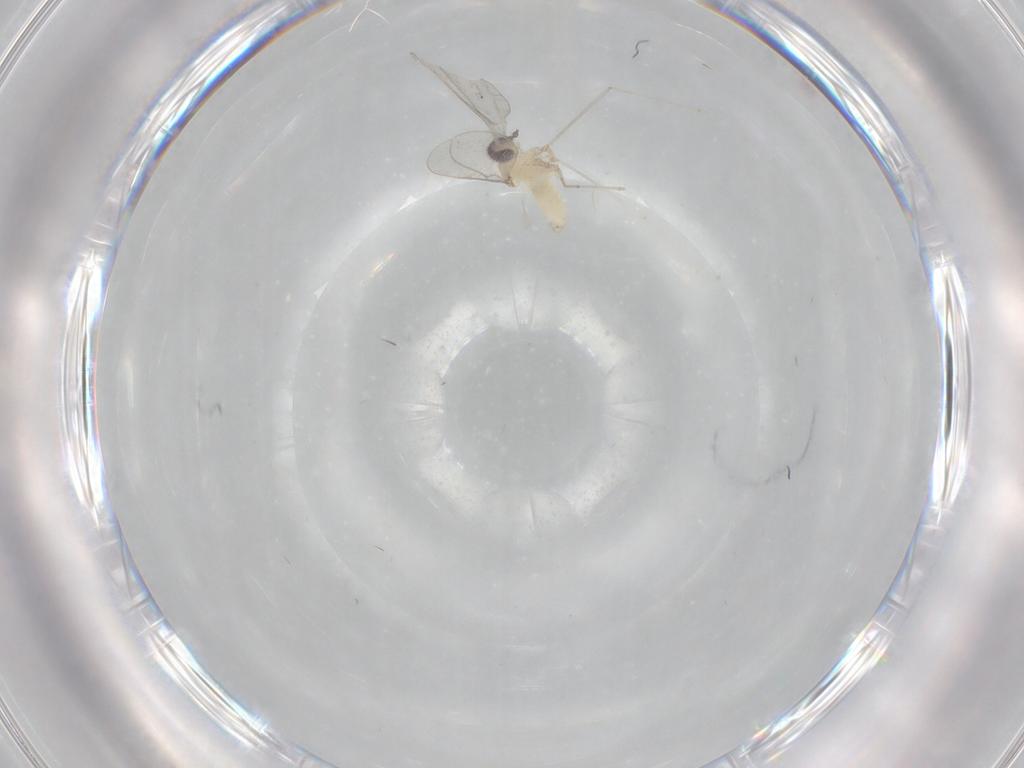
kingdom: Animalia
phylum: Arthropoda
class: Insecta
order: Diptera
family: Cecidomyiidae
